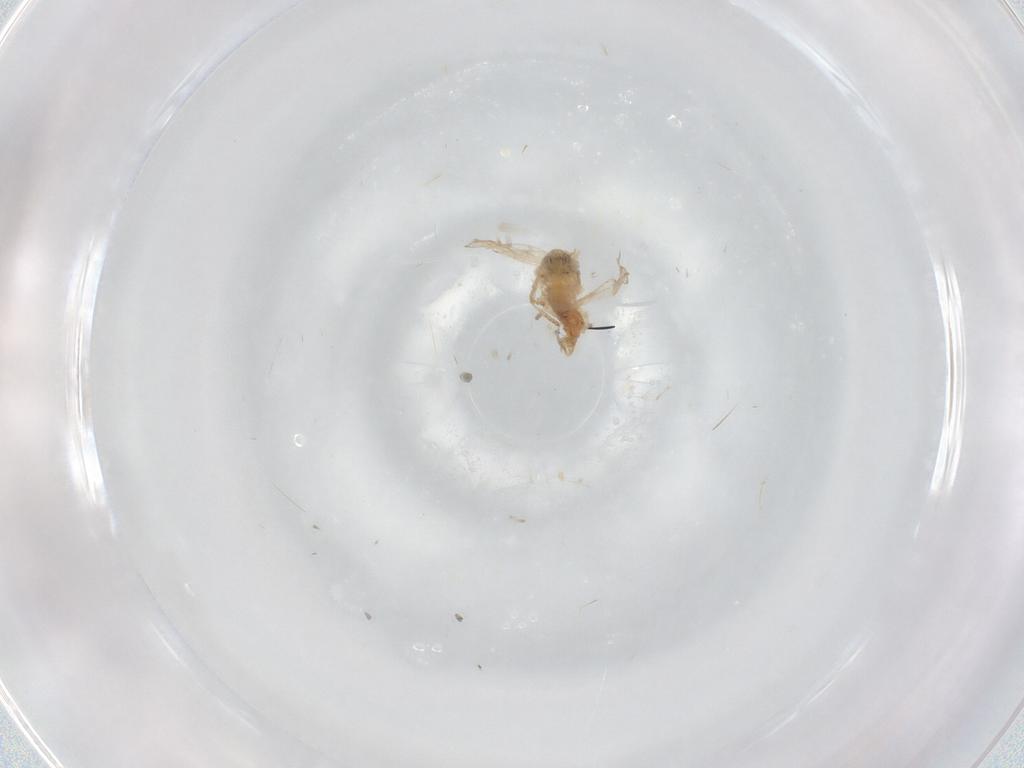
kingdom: Animalia
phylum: Arthropoda
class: Insecta
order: Diptera
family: Psychodidae
